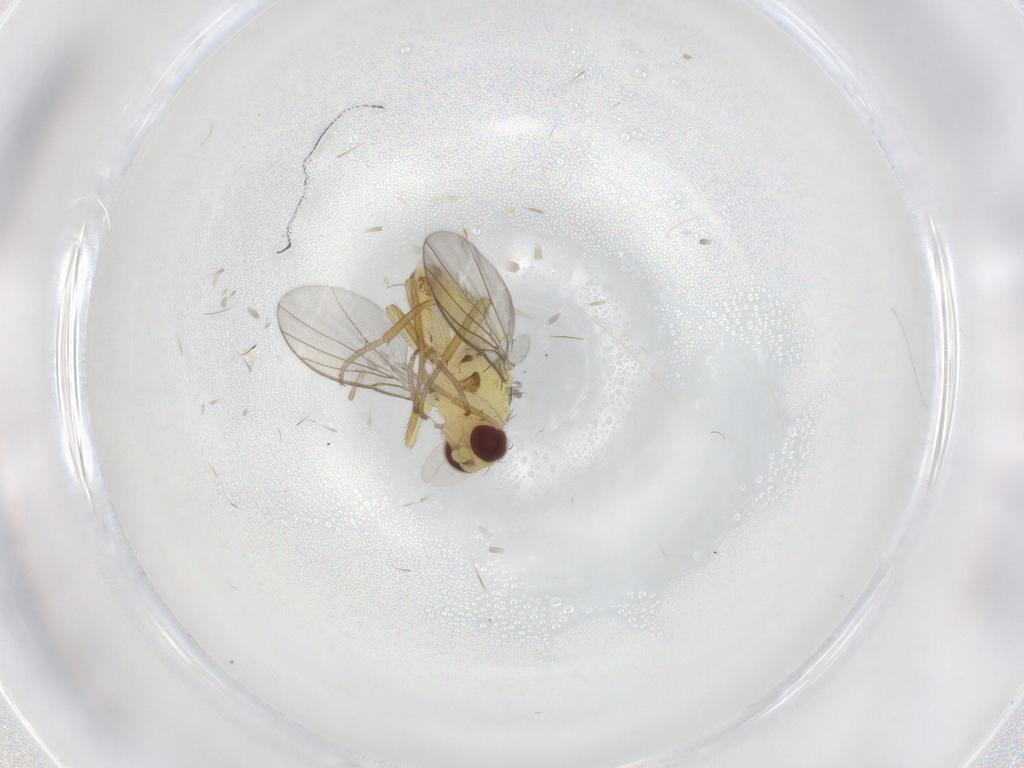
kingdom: Animalia
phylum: Arthropoda
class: Insecta
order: Diptera
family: Agromyzidae
